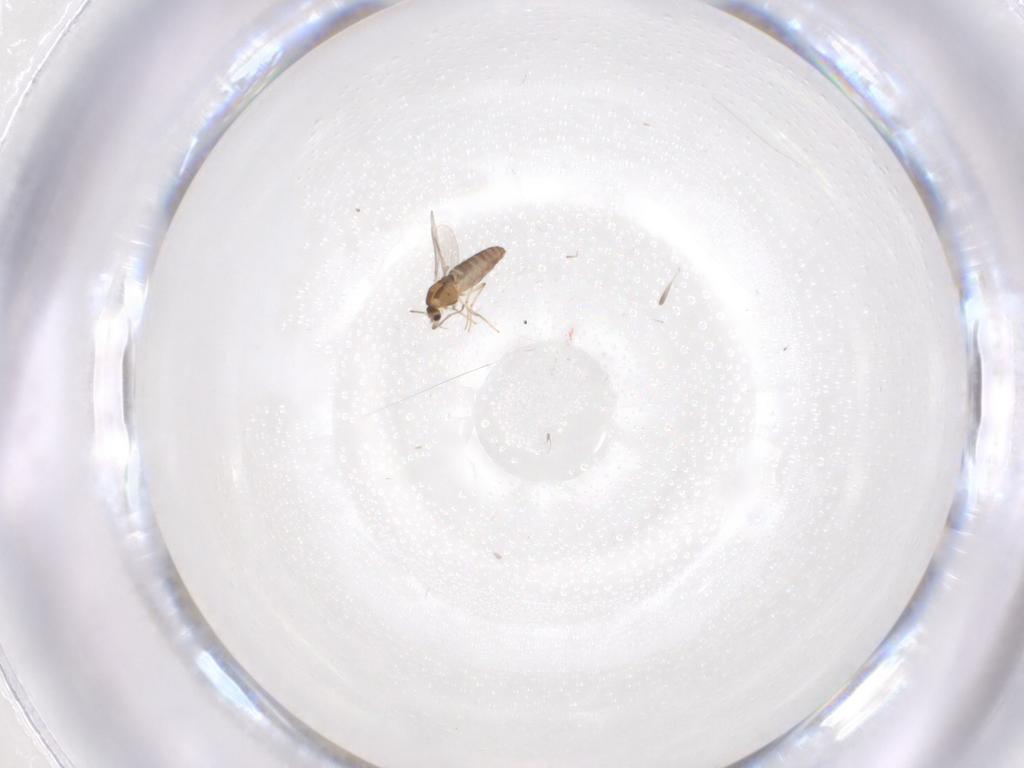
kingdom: Animalia
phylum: Arthropoda
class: Insecta
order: Diptera
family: Chironomidae
